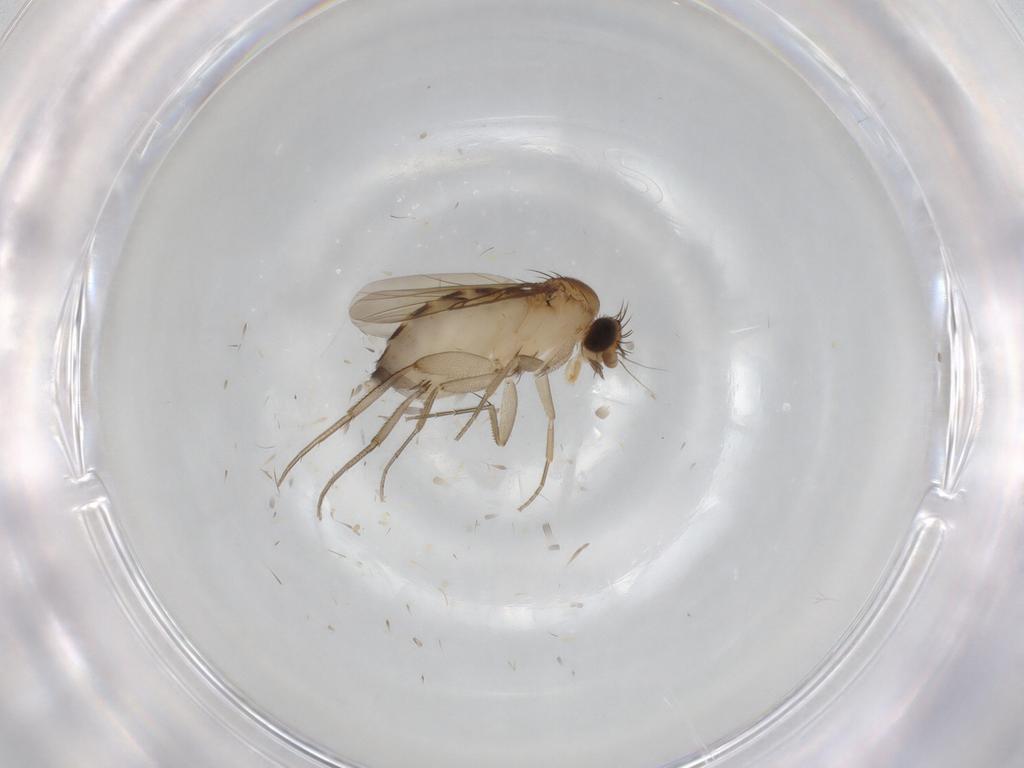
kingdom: Animalia
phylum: Arthropoda
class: Insecta
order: Diptera
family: Phoridae
